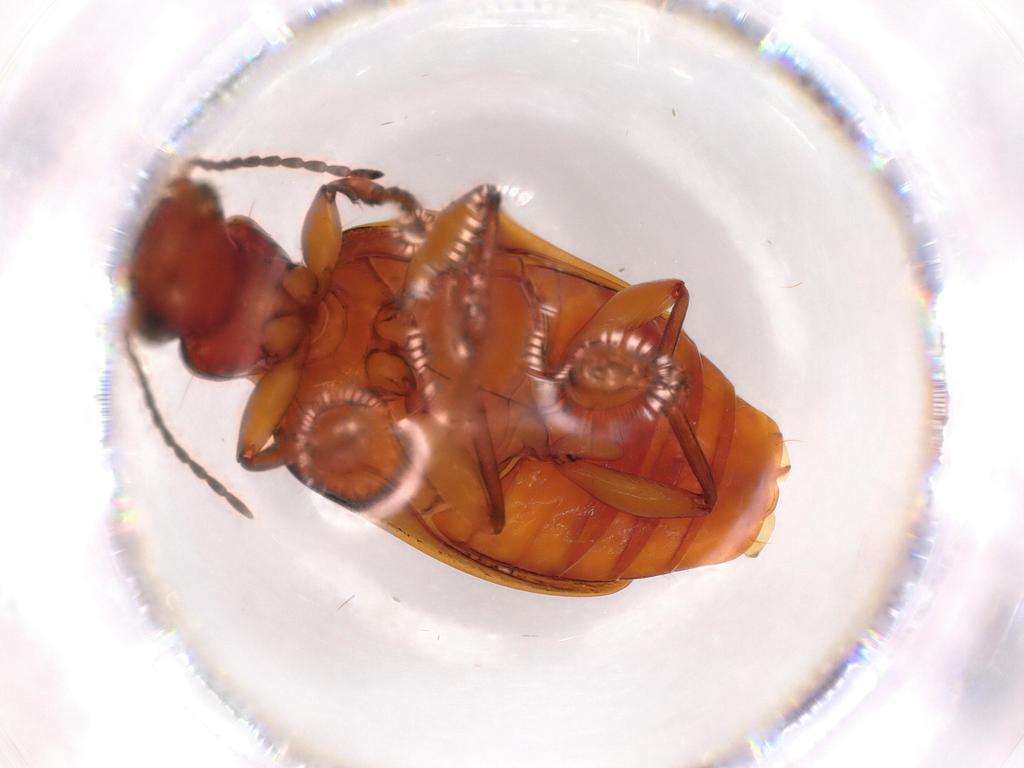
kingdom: Animalia
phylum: Arthropoda
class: Insecta
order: Coleoptera
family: Carabidae
